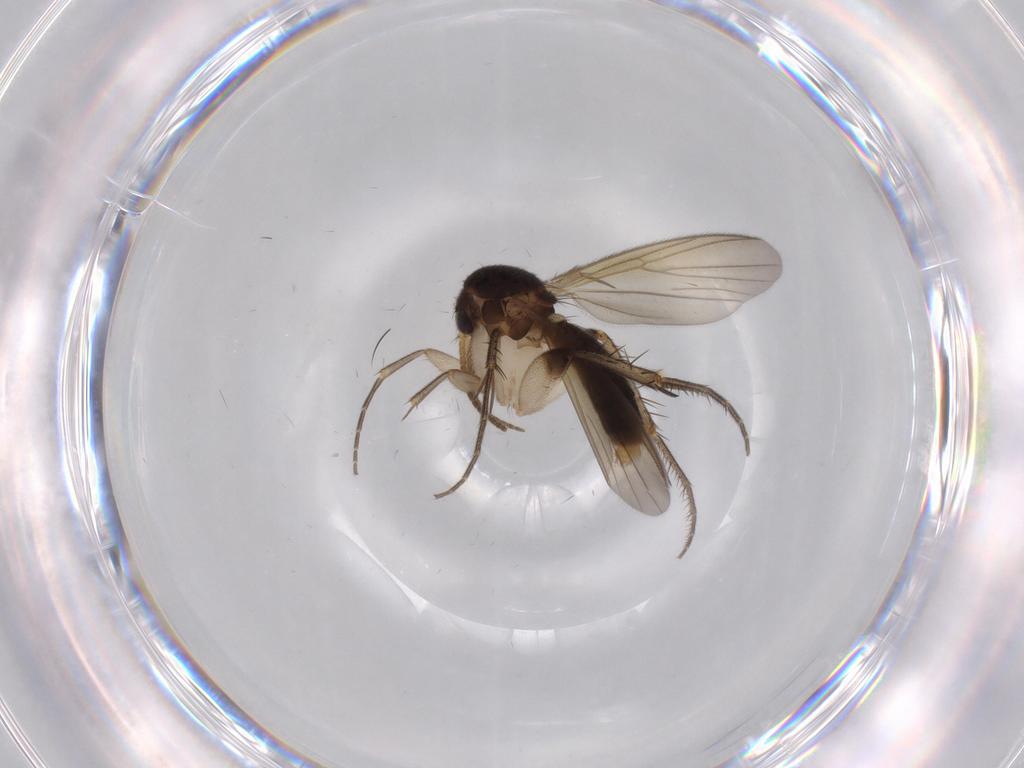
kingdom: Animalia
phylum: Arthropoda
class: Insecta
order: Diptera
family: Mycetophilidae
